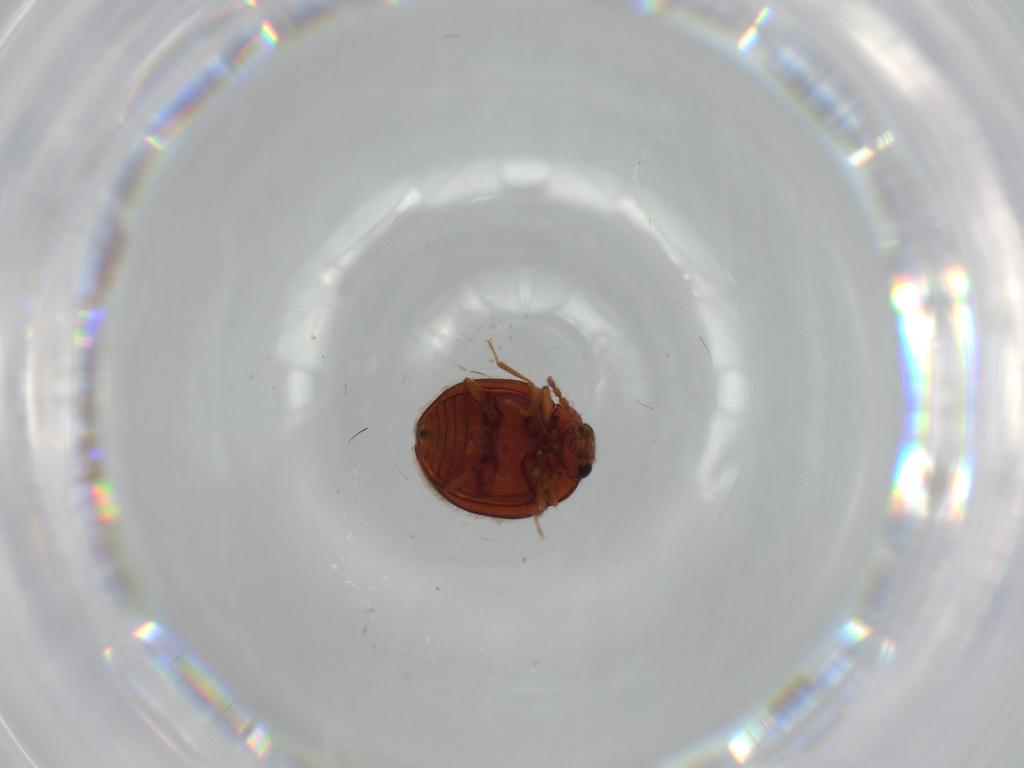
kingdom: Animalia
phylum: Arthropoda
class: Insecta
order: Coleoptera
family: Anamorphidae
